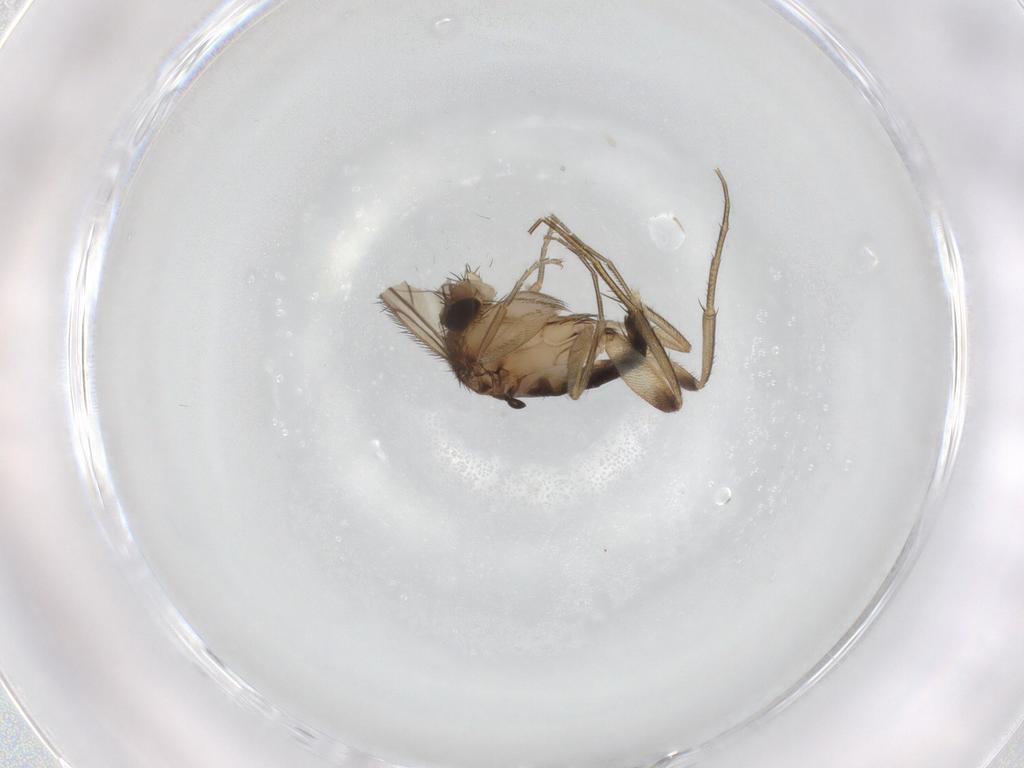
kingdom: Animalia
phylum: Arthropoda
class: Insecta
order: Diptera
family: Phoridae
